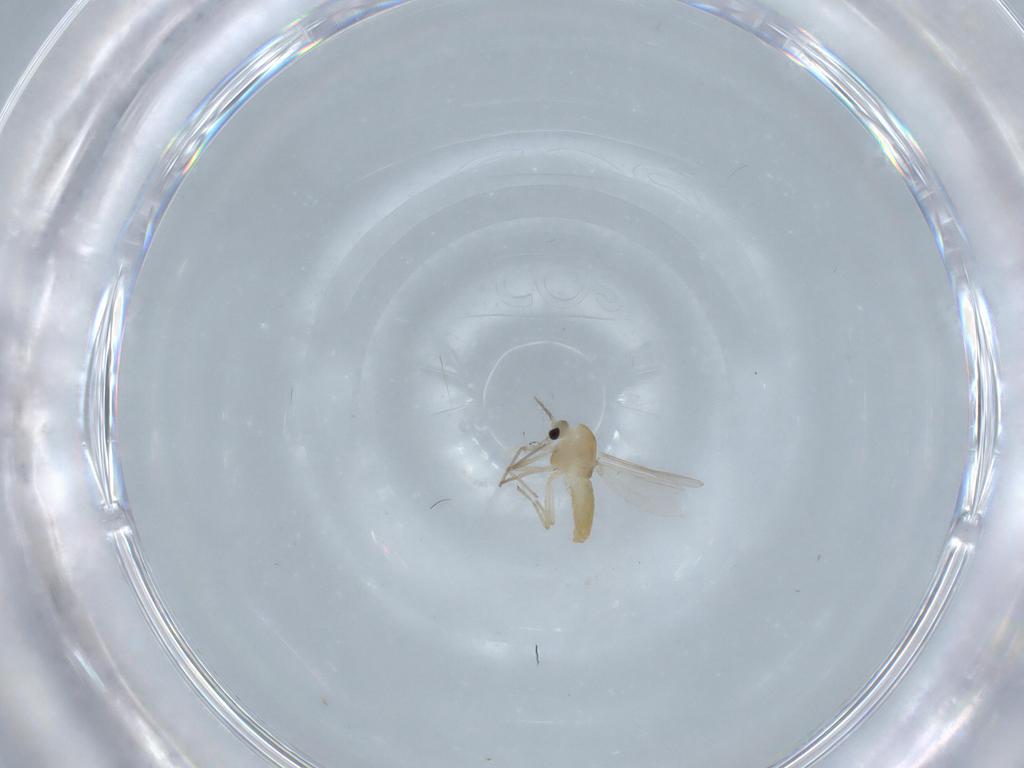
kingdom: Animalia
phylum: Arthropoda
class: Insecta
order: Diptera
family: Chironomidae
